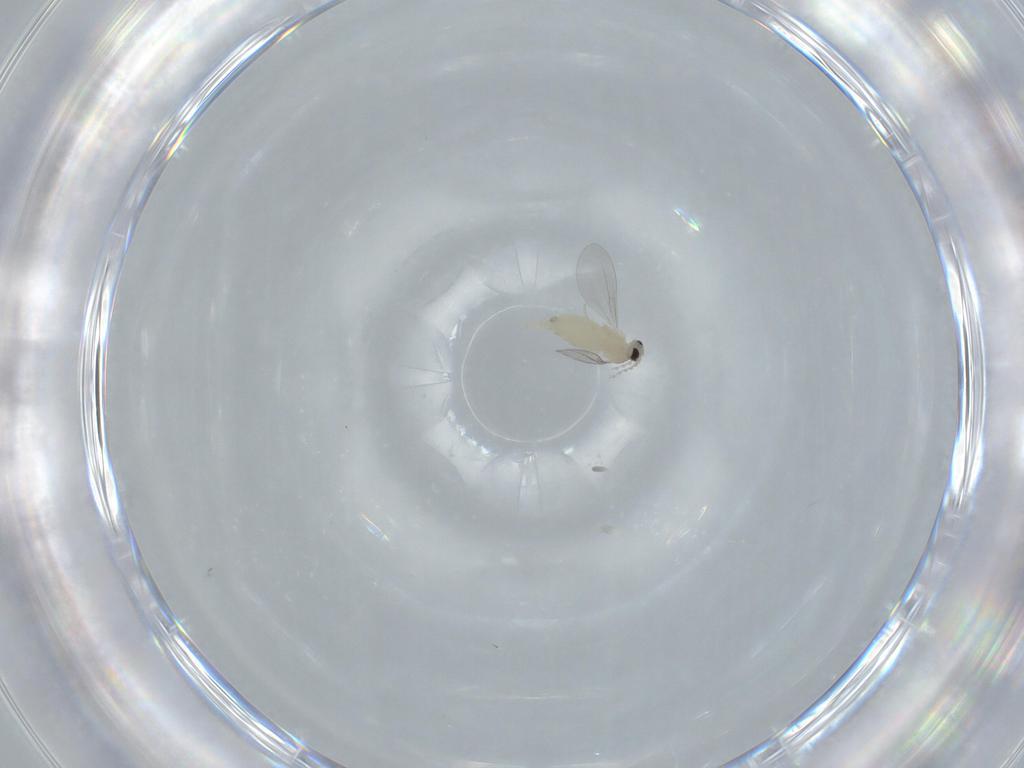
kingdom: Animalia
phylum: Arthropoda
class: Insecta
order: Diptera
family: Cecidomyiidae
